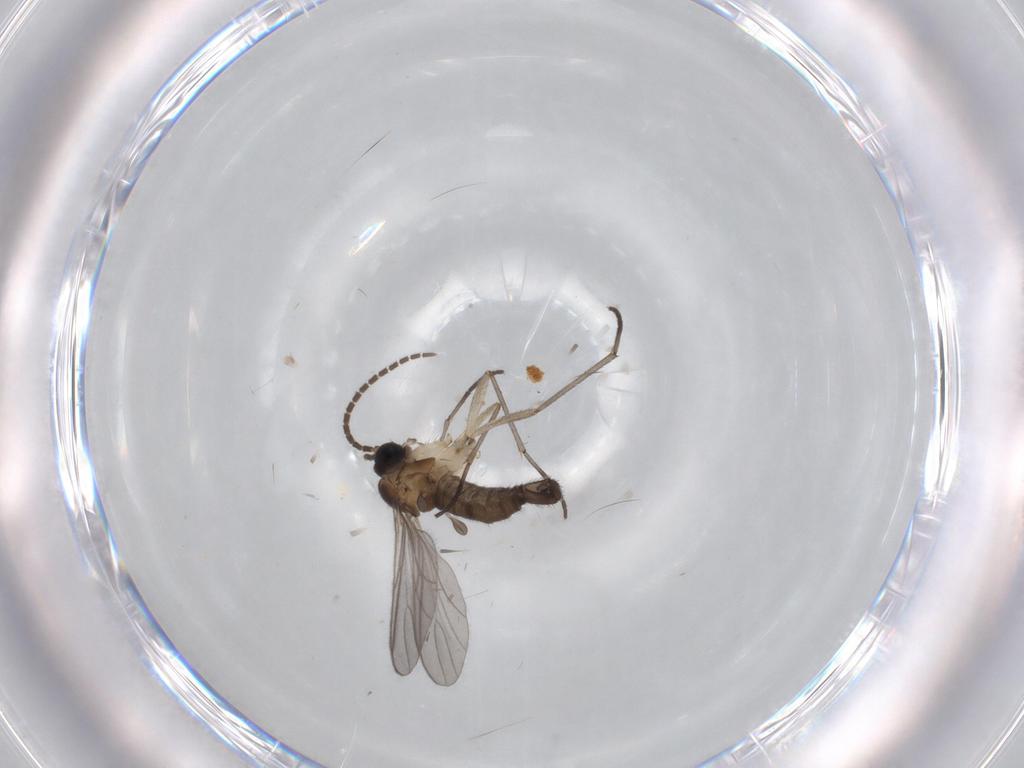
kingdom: Animalia
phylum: Arthropoda
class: Insecta
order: Diptera
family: Sciaridae
